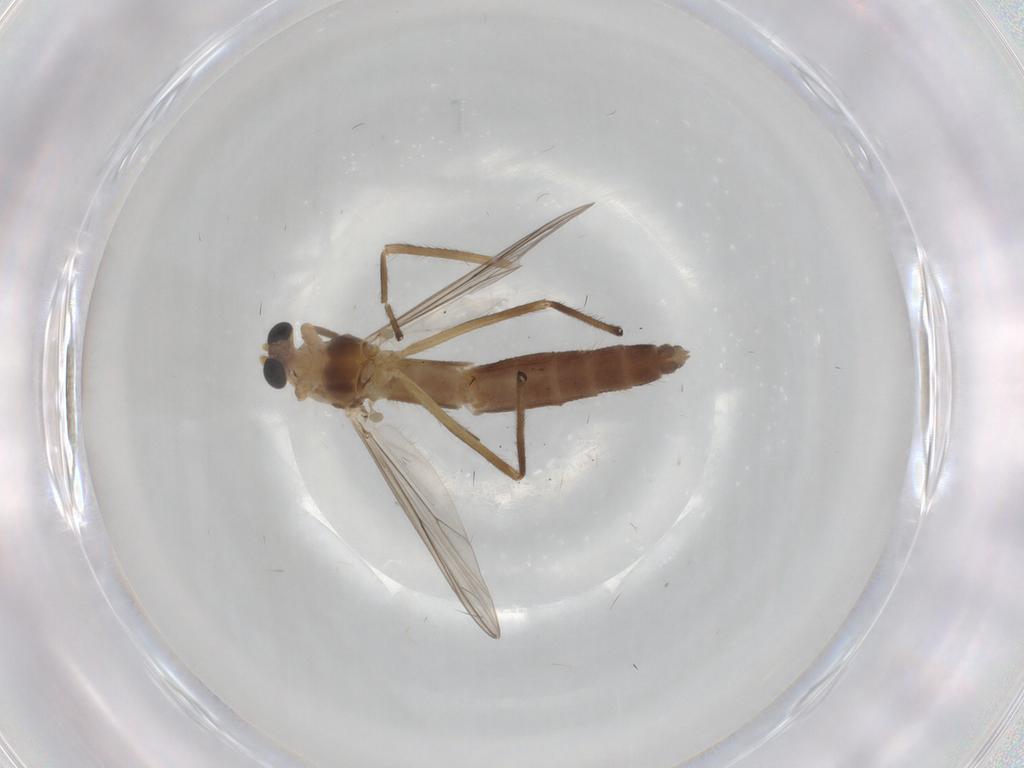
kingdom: Animalia
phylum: Arthropoda
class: Insecta
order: Diptera
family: Chironomidae
